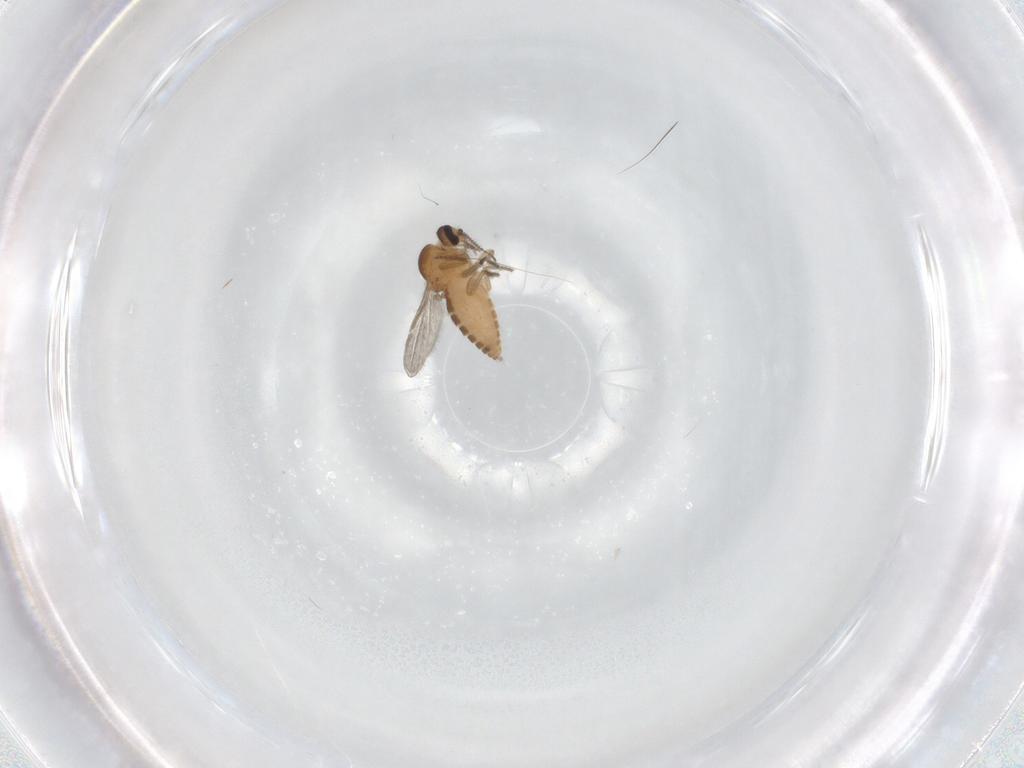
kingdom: Animalia
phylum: Arthropoda
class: Insecta
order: Diptera
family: Ceratopogonidae
